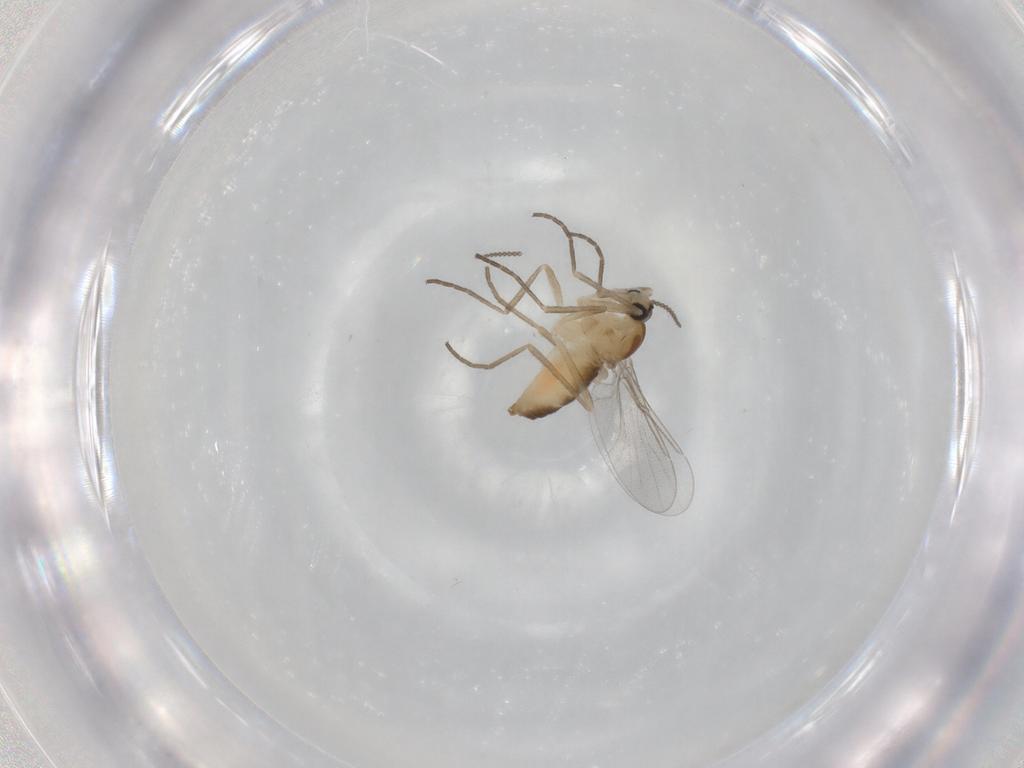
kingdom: Animalia
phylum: Arthropoda
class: Insecta
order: Diptera
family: Cecidomyiidae
